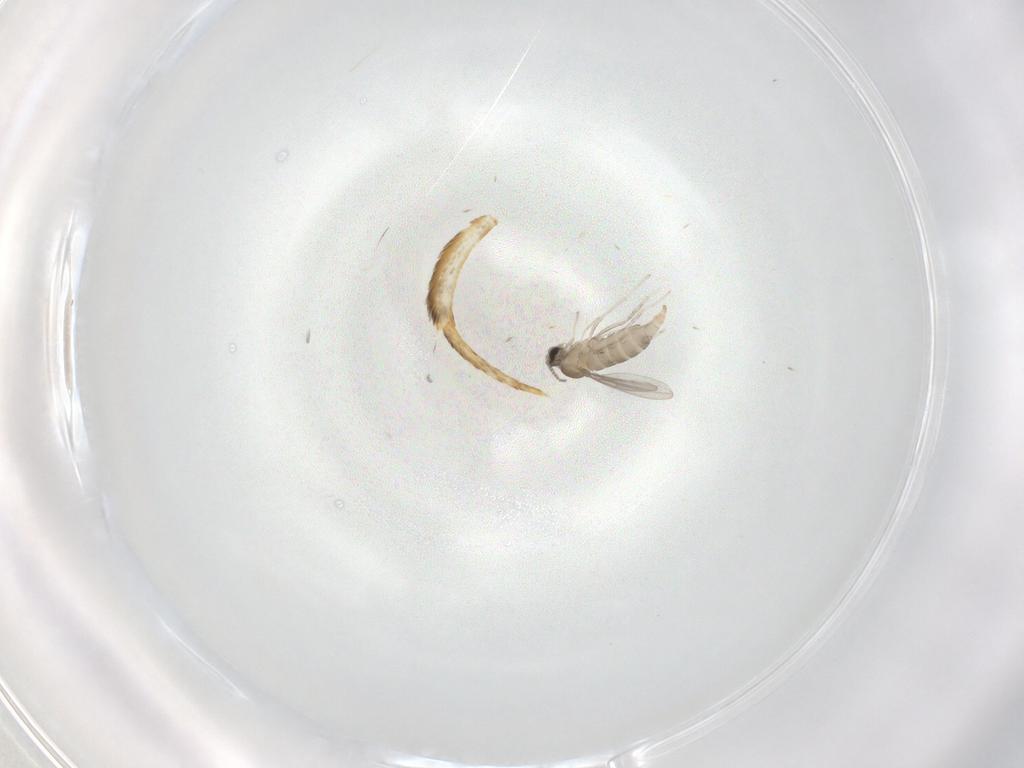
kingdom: Animalia
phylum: Arthropoda
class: Insecta
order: Diptera
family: Cecidomyiidae
